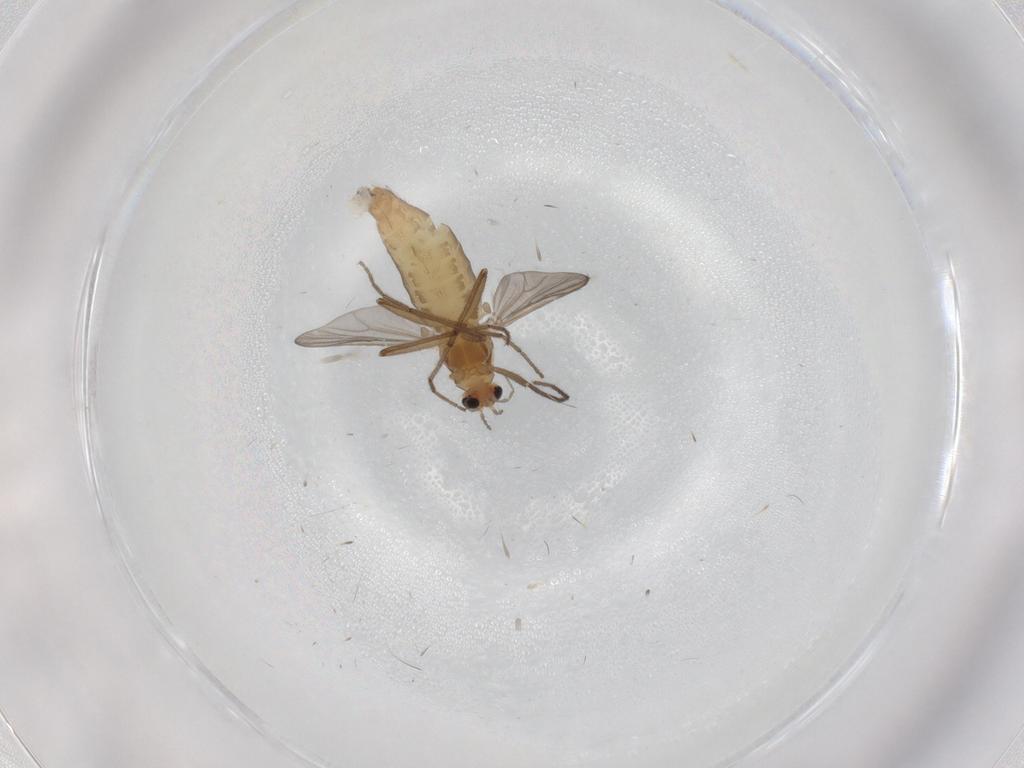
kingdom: Animalia
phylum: Arthropoda
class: Insecta
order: Diptera
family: Chironomidae
